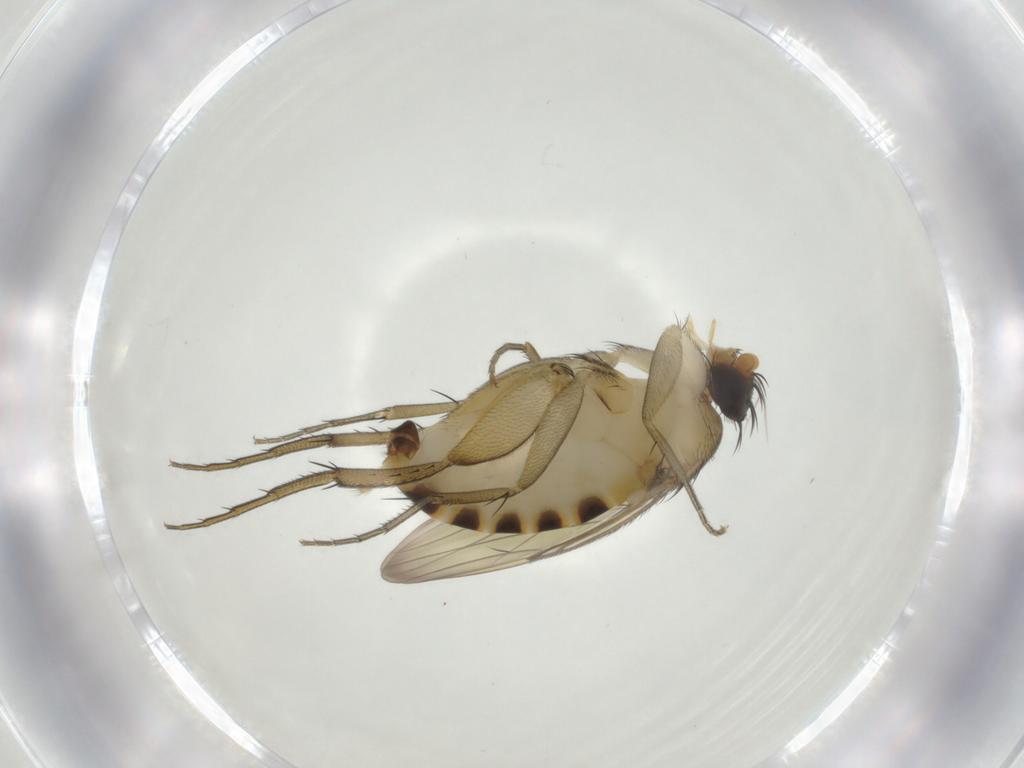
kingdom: Animalia
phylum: Arthropoda
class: Insecta
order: Diptera
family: Phoridae
